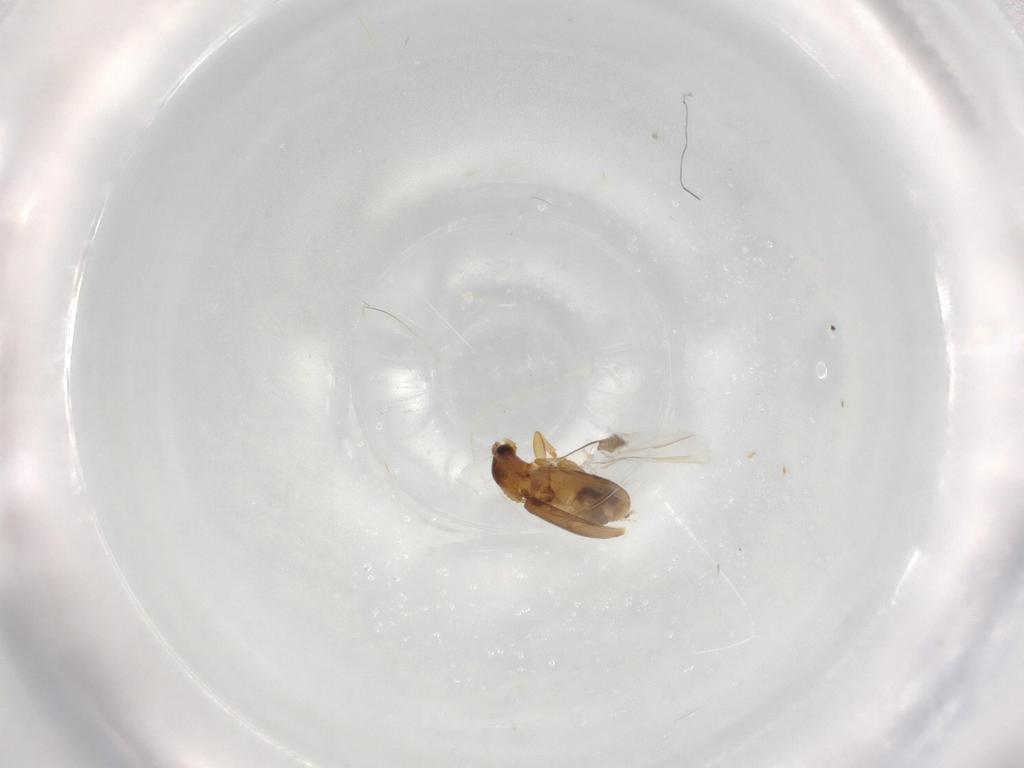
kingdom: Animalia
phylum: Arthropoda
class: Insecta
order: Coleoptera
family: Carabidae
